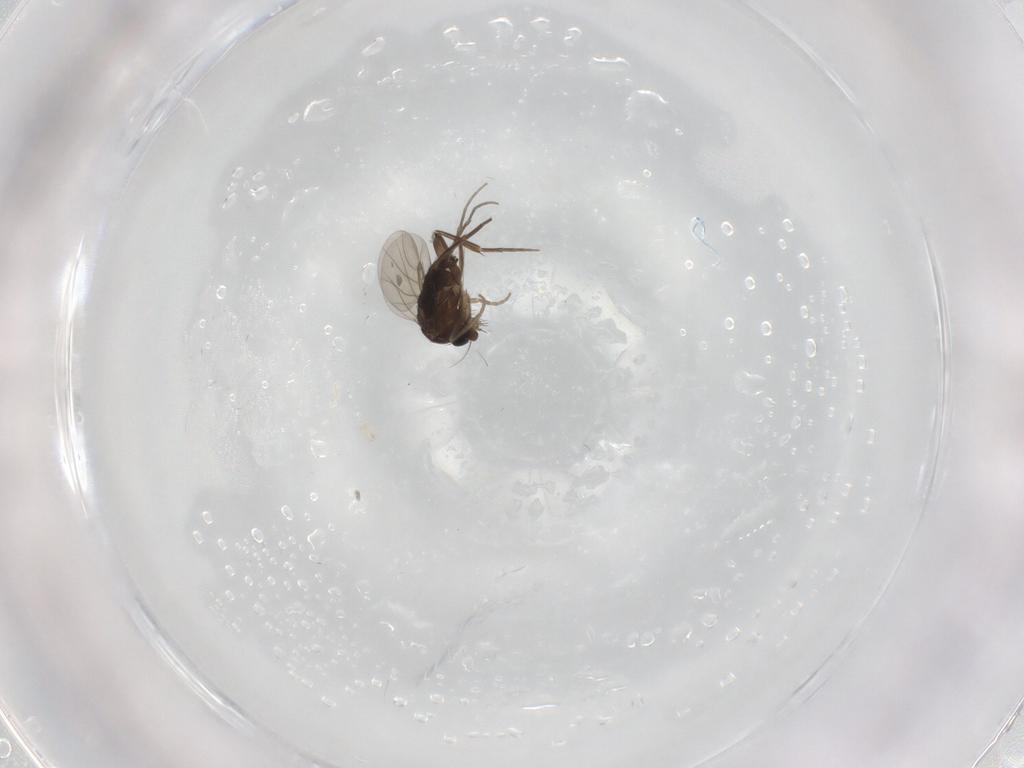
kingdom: Animalia
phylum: Arthropoda
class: Insecta
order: Diptera
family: Phoridae
